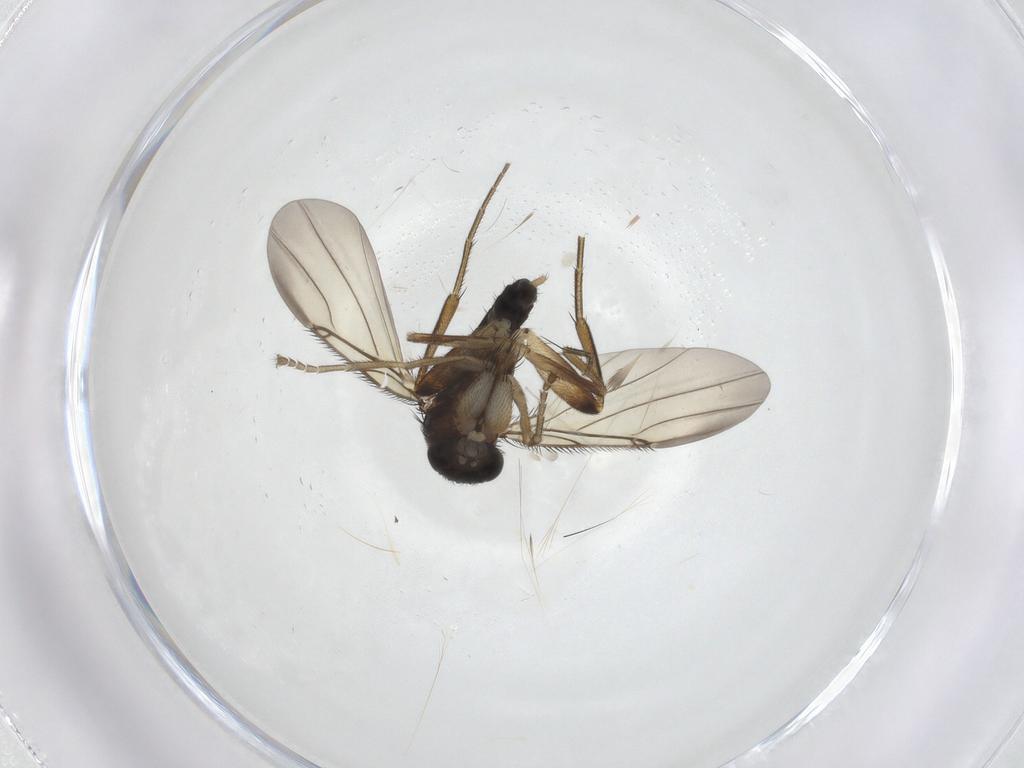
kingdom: Animalia
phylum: Arthropoda
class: Insecta
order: Diptera
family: Phoridae
